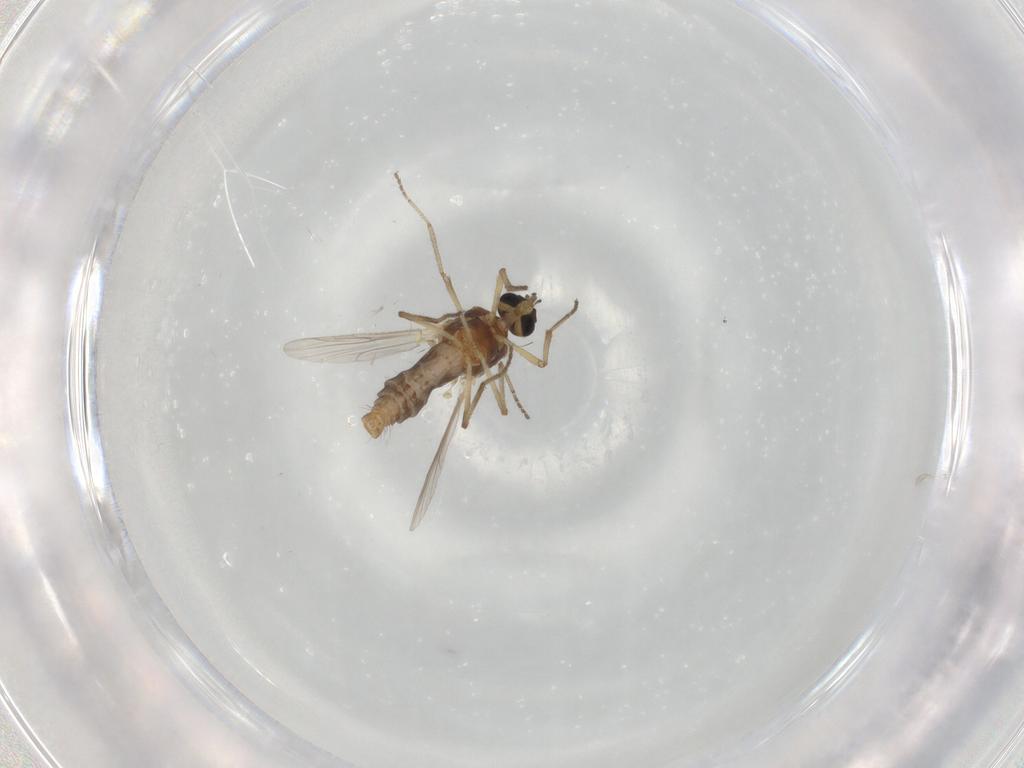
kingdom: Animalia
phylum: Arthropoda
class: Insecta
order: Diptera
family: Ceratopogonidae
